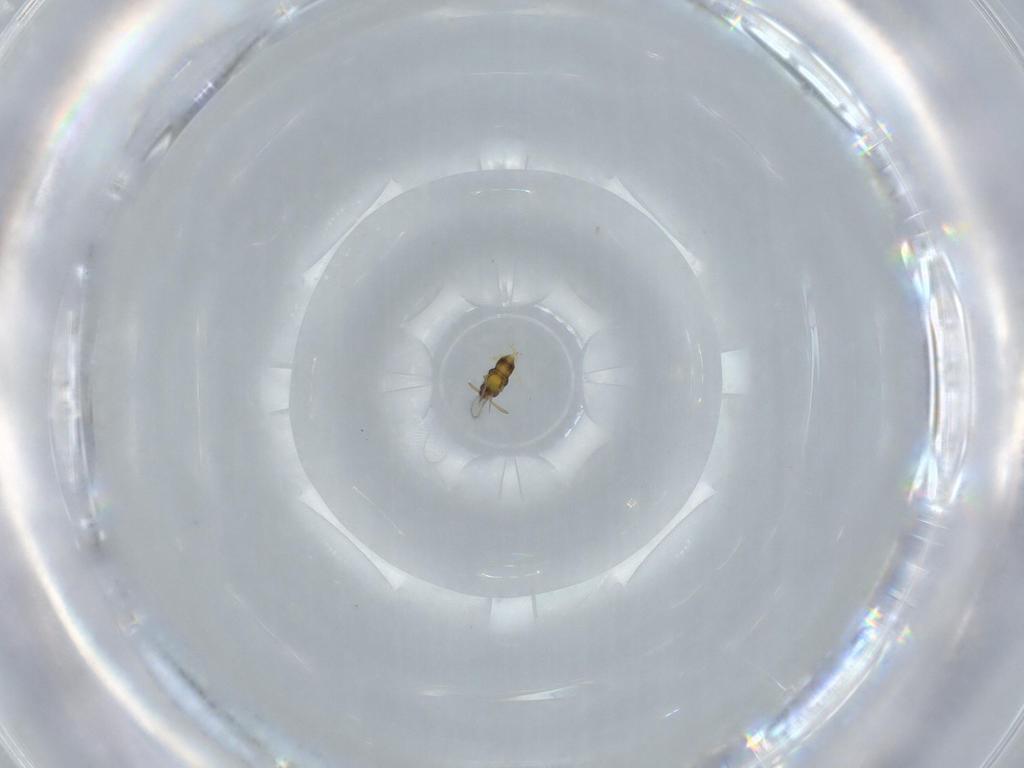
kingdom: Animalia
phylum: Arthropoda
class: Insecta
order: Hymenoptera
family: Aphelinidae
